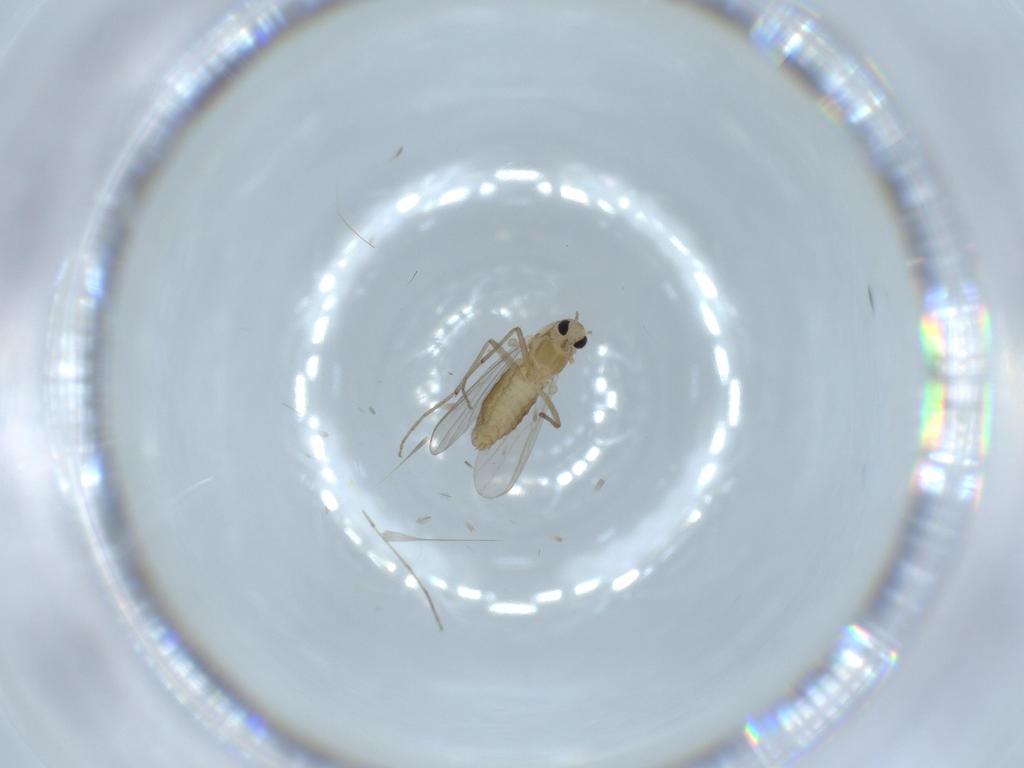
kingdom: Animalia
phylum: Arthropoda
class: Insecta
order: Diptera
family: Chironomidae
